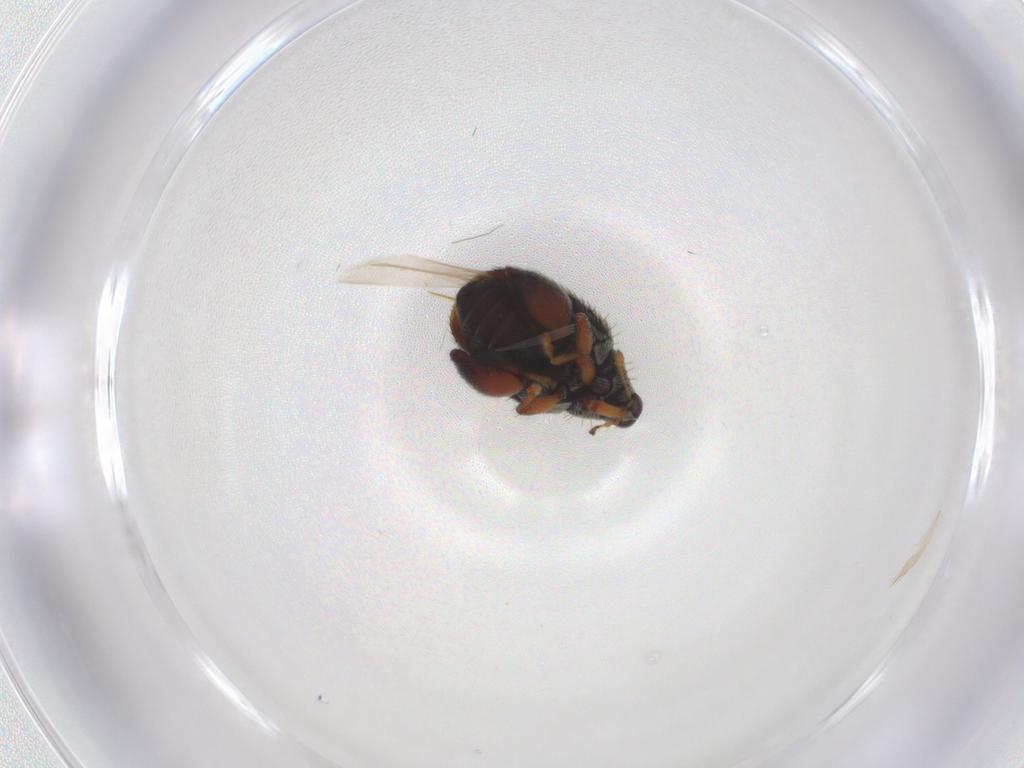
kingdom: Animalia
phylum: Arthropoda
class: Insecta
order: Coleoptera
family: Curculionidae
